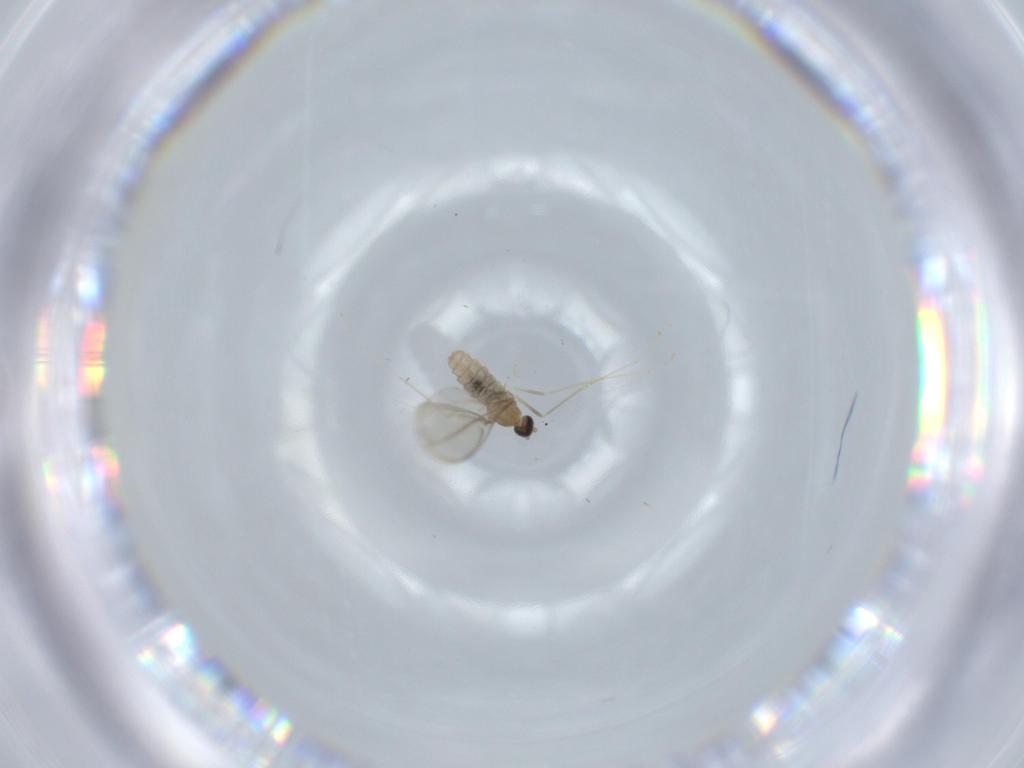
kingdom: Animalia
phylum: Arthropoda
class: Insecta
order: Diptera
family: Cecidomyiidae
